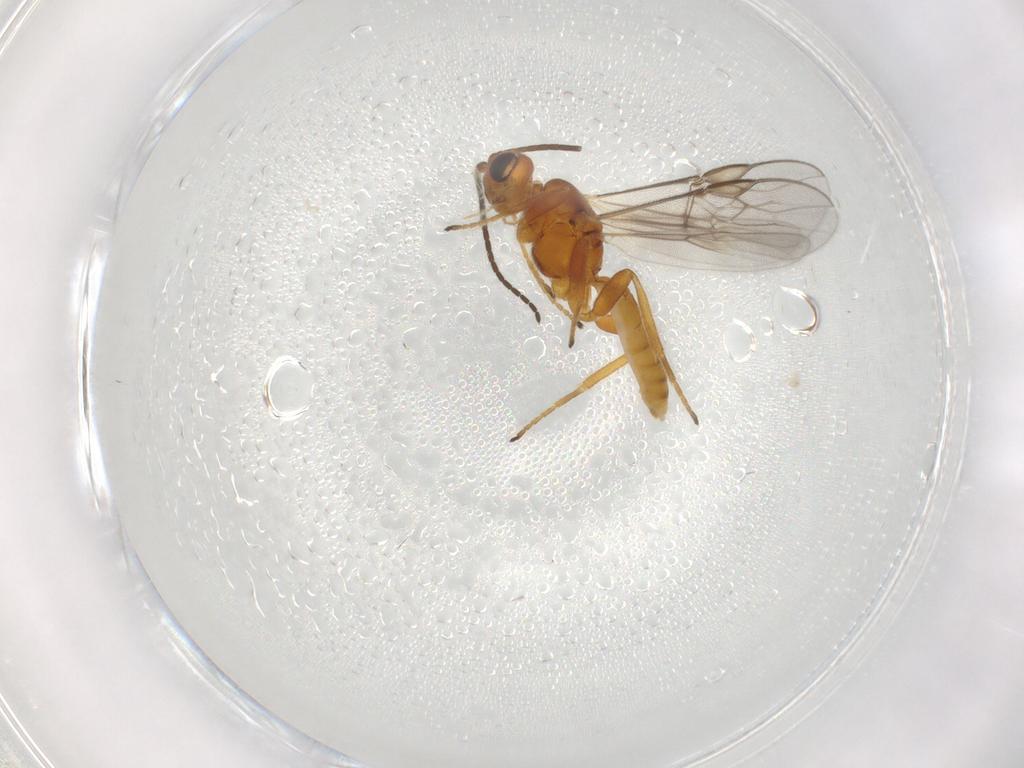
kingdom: Animalia
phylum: Arthropoda
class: Insecta
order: Hymenoptera
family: Braconidae
